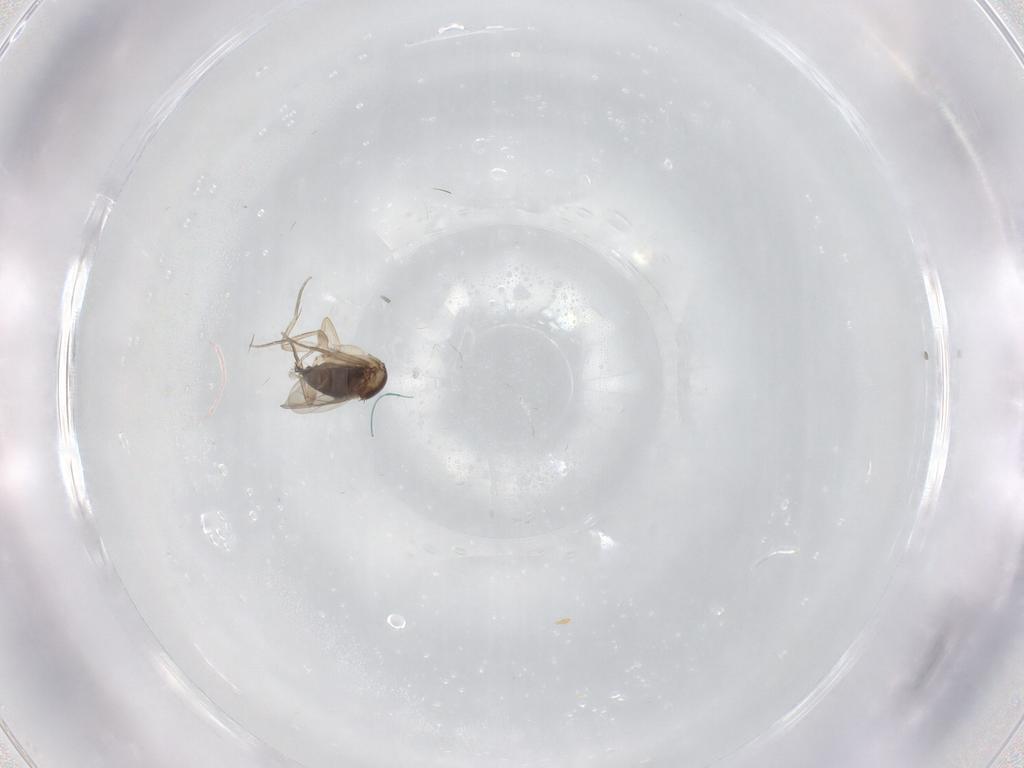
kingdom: Animalia
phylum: Arthropoda
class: Insecta
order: Diptera
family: Phoridae
